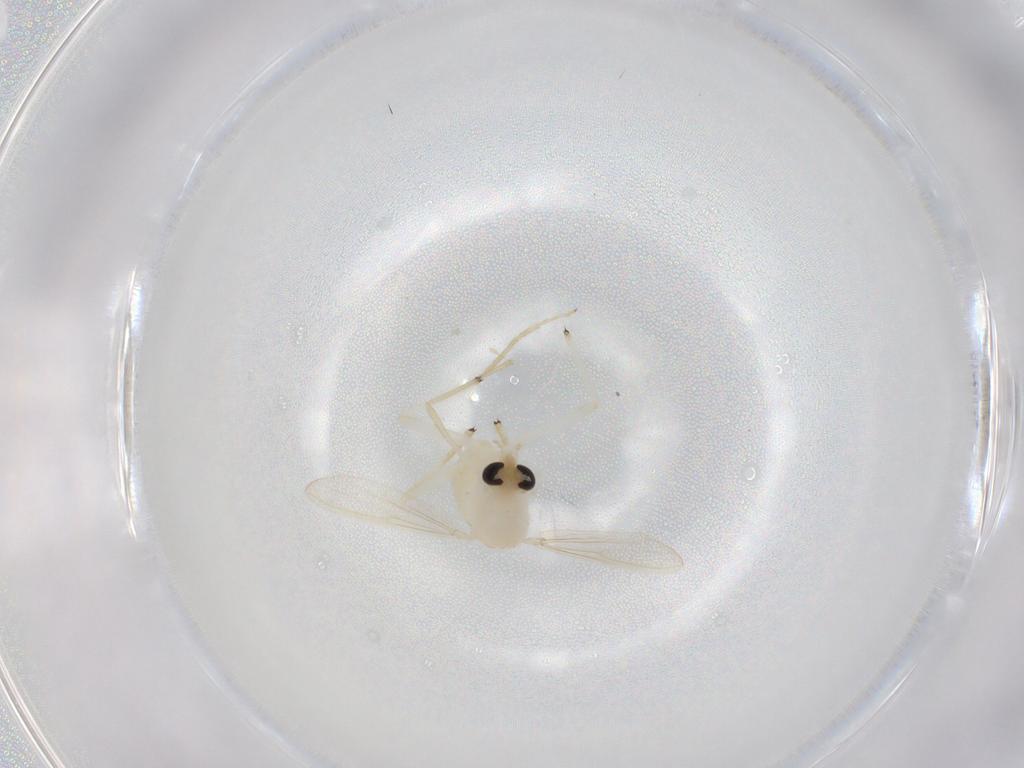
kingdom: Animalia
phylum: Arthropoda
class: Insecta
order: Diptera
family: Chironomidae
